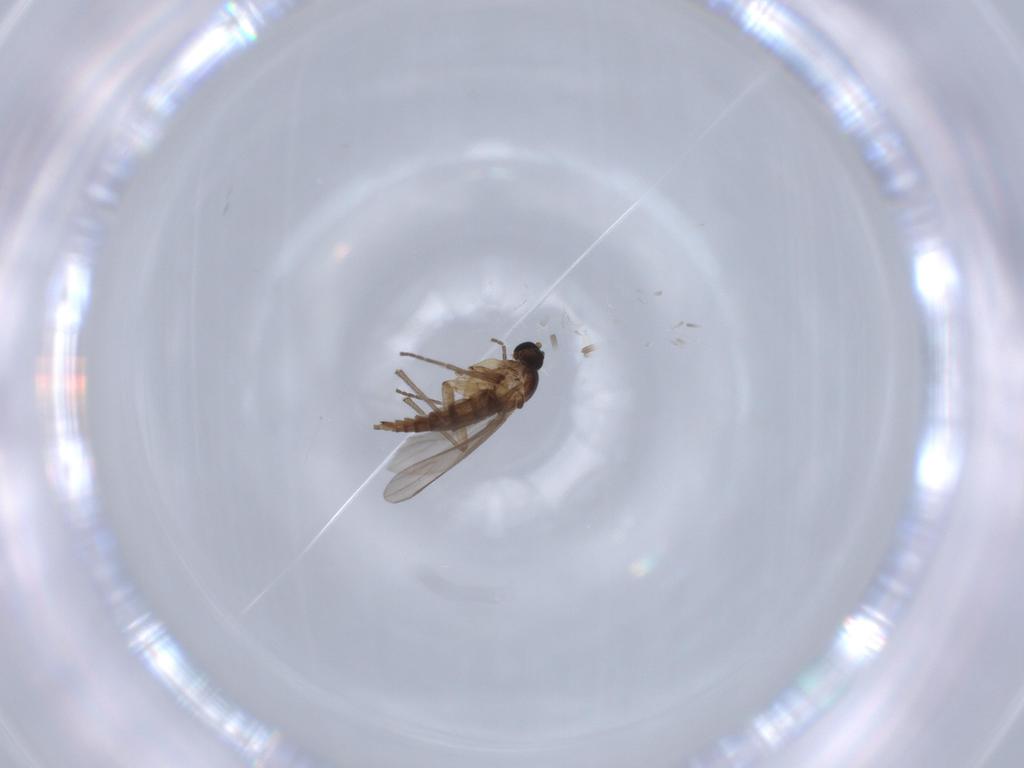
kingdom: Animalia
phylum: Arthropoda
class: Insecta
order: Diptera
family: Sciaridae
